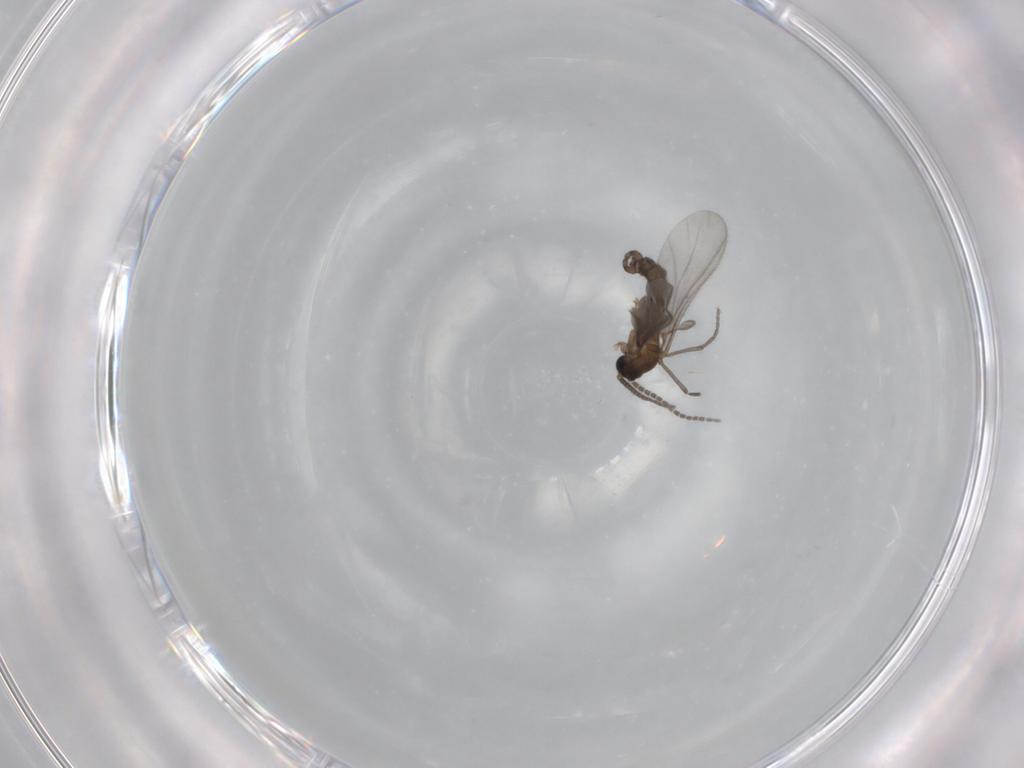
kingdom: Animalia
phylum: Arthropoda
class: Insecta
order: Diptera
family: Sciaridae
